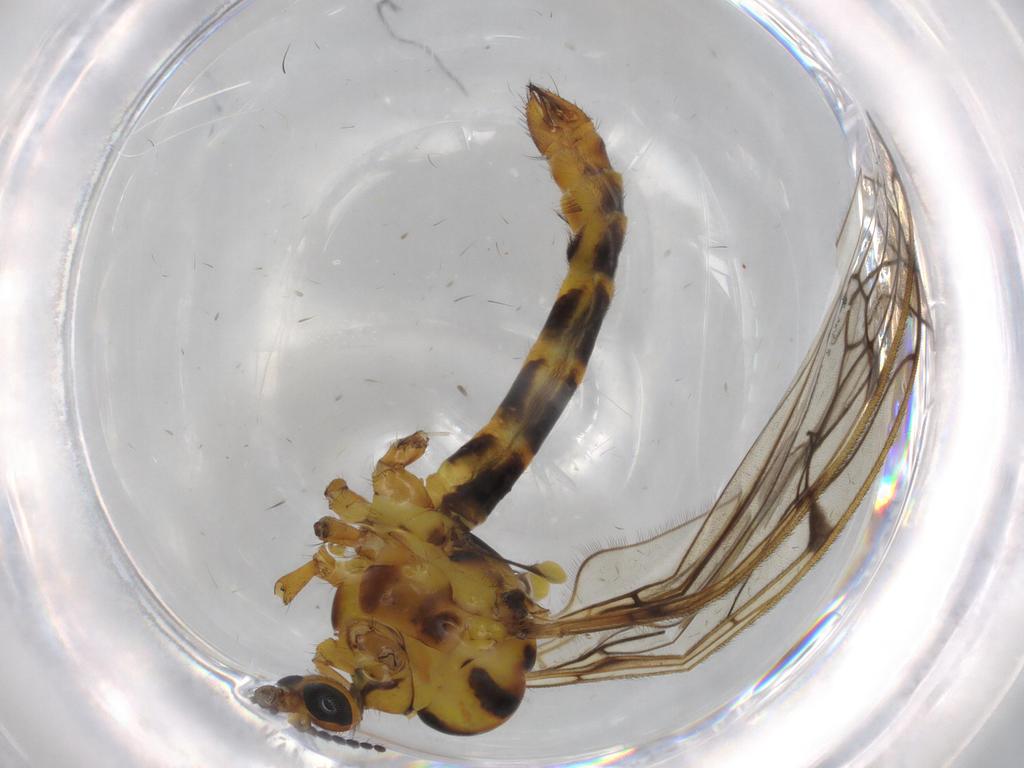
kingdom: Animalia
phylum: Arthropoda
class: Insecta
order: Diptera
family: Limoniidae
